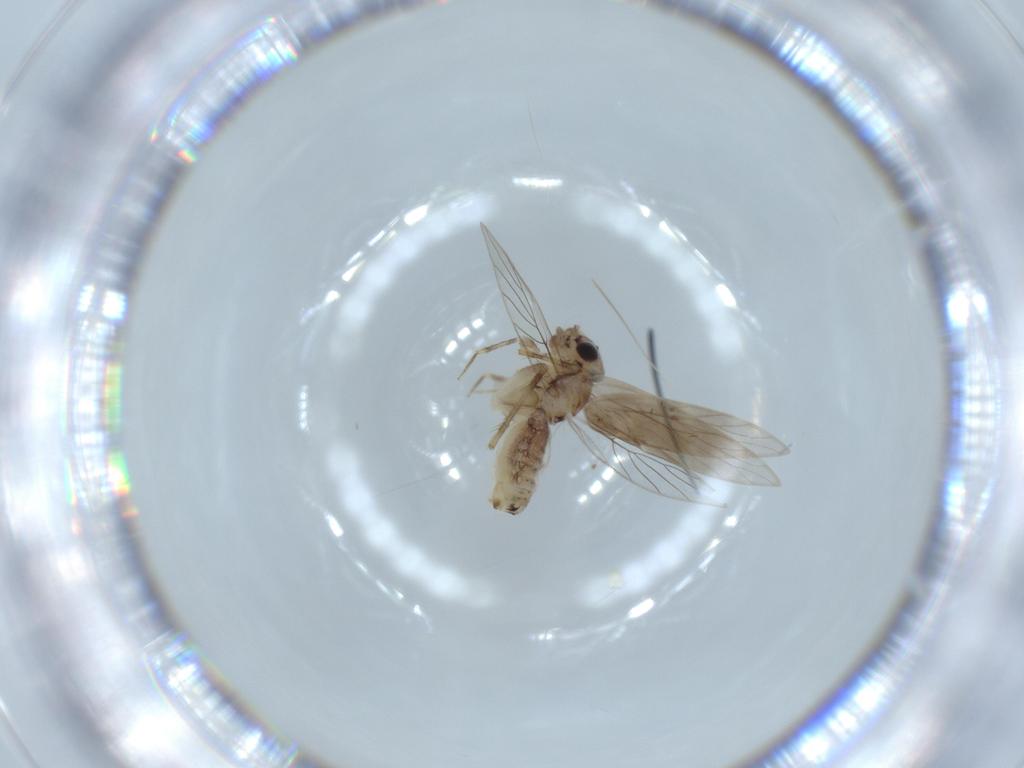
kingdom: Animalia
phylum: Arthropoda
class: Insecta
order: Psocodea
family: Lepidopsocidae
